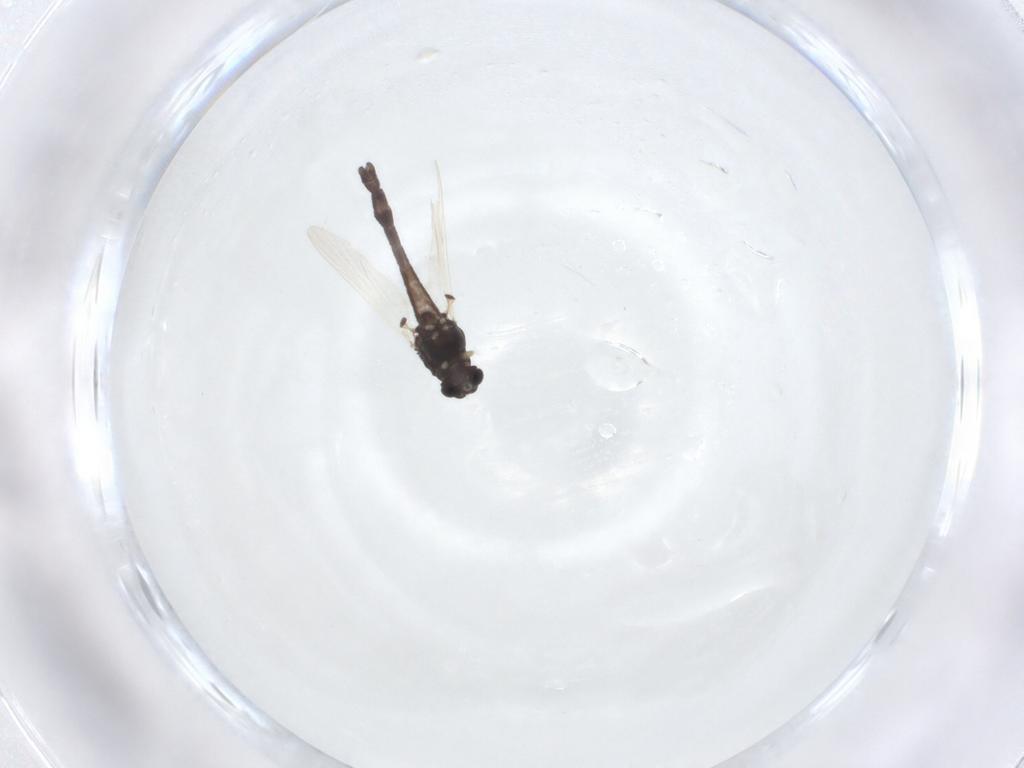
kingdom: Animalia
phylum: Arthropoda
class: Insecta
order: Diptera
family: Chironomidae
